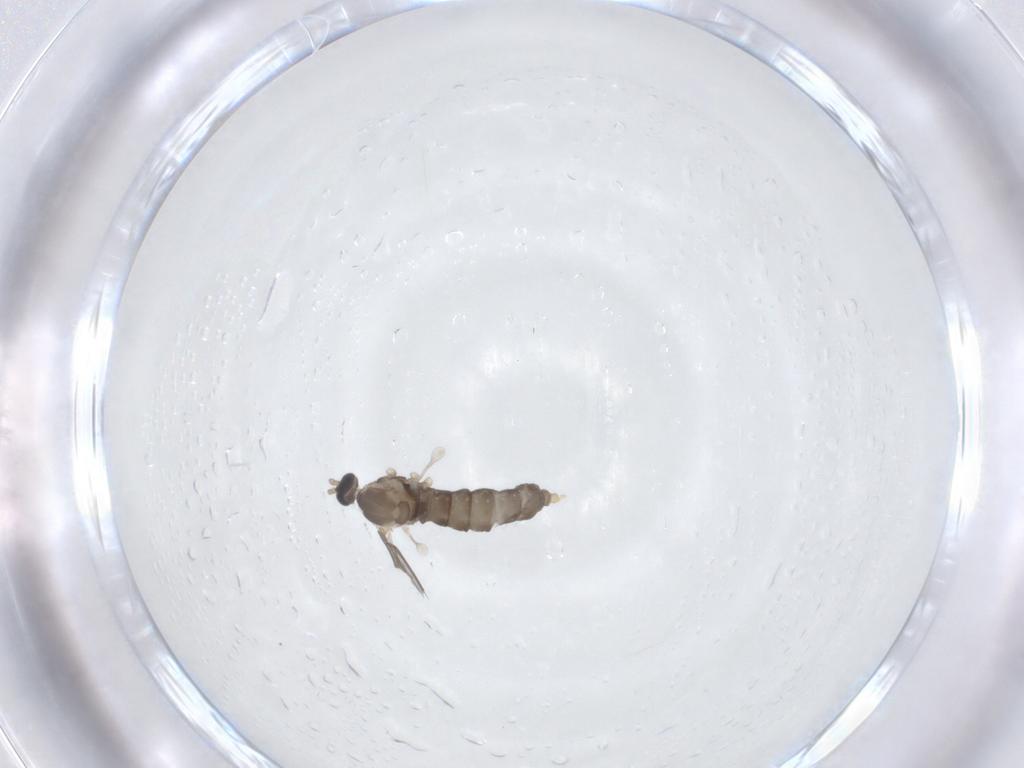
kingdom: Animalia
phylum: Arthropoda
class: Insecta
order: Diptera
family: Cecidomyiidae
